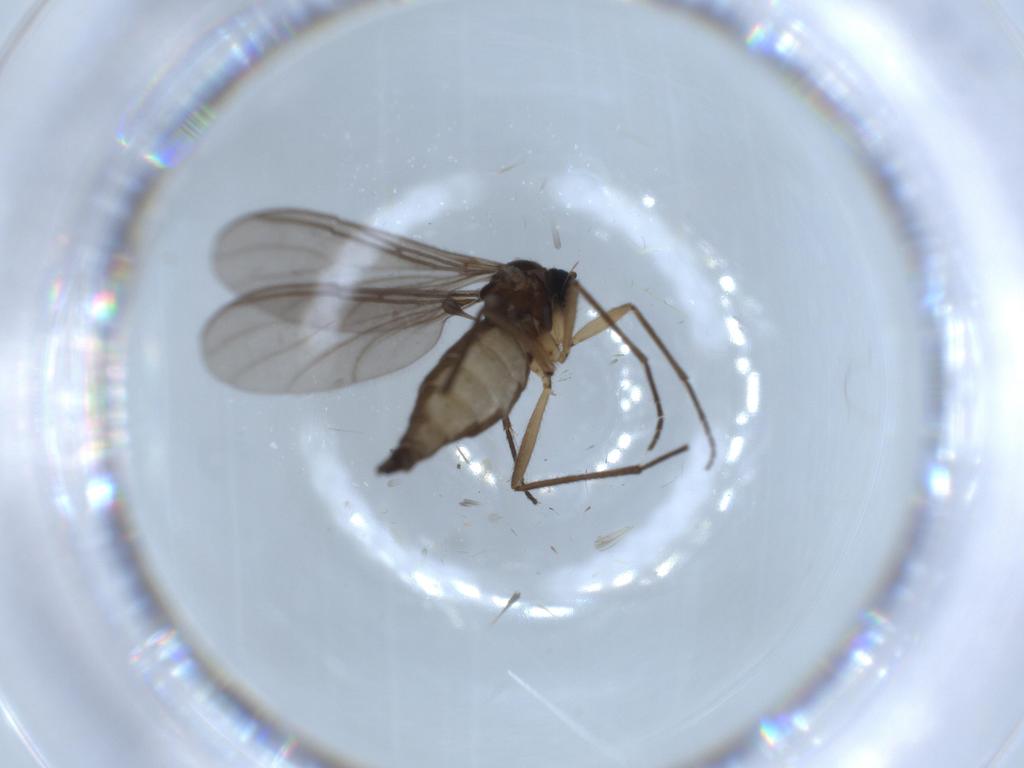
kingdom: Animalia
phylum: Arthropoda
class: Insecta
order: Diptera
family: Sciaridae
